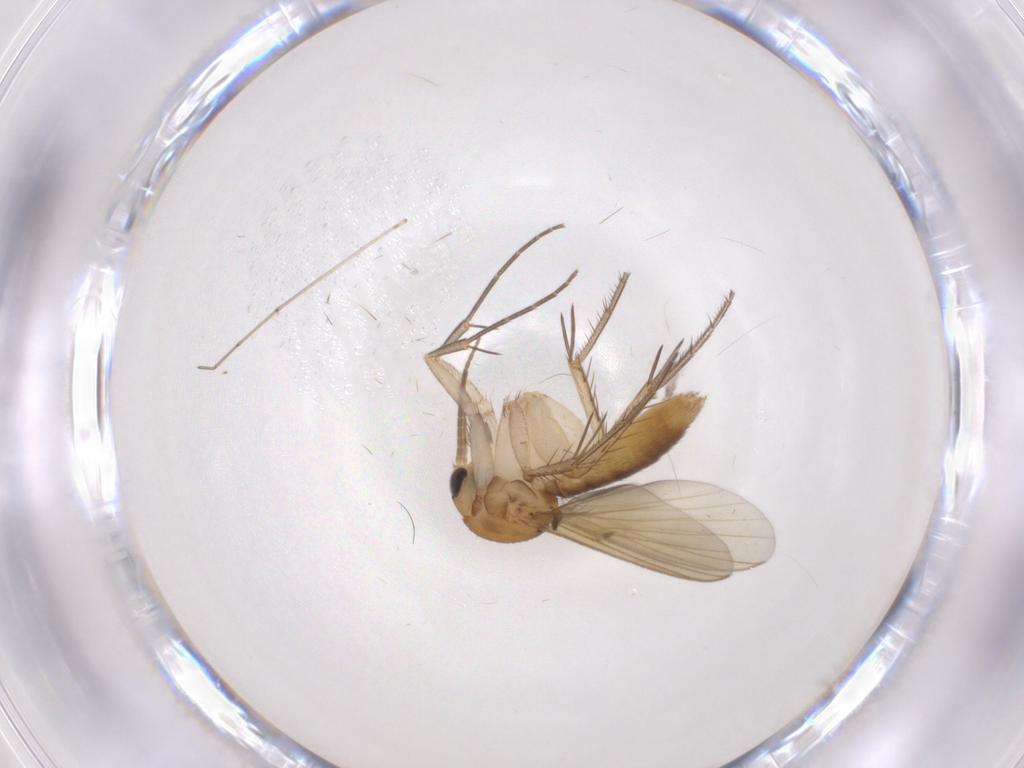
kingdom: Animalia
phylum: Arthropoda
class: Insecta
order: Diptera
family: Mycetophilidae
